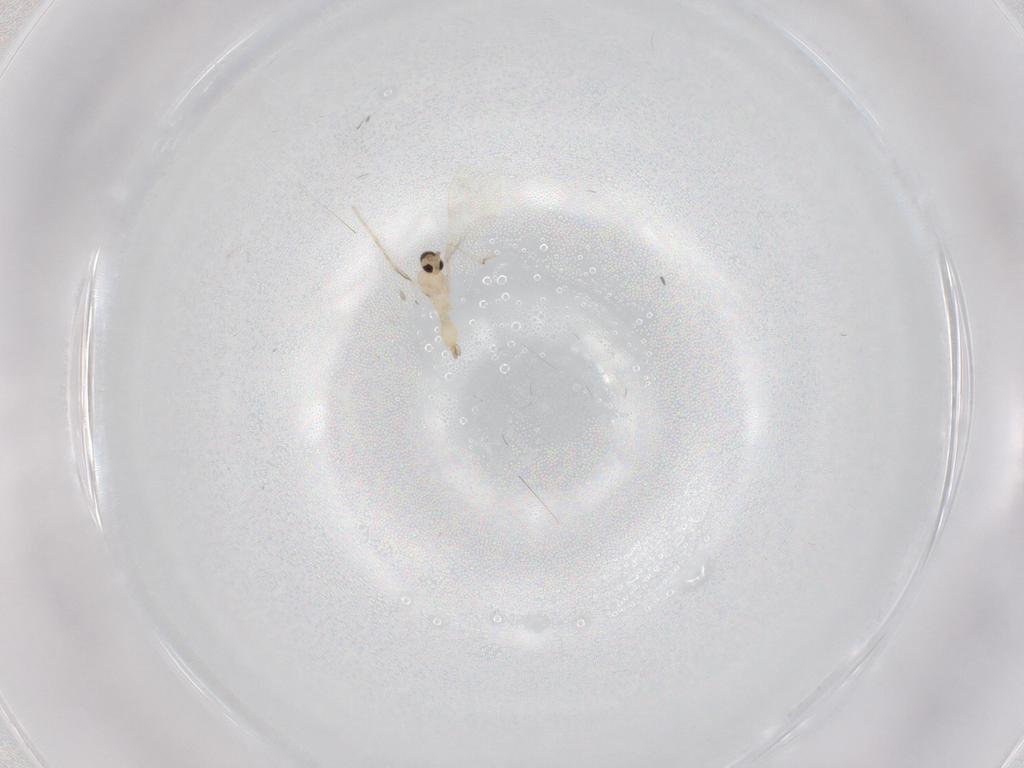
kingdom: Animalia
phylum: Arthropoda
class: Insecta
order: Diptera
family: Cecidomyiidae
